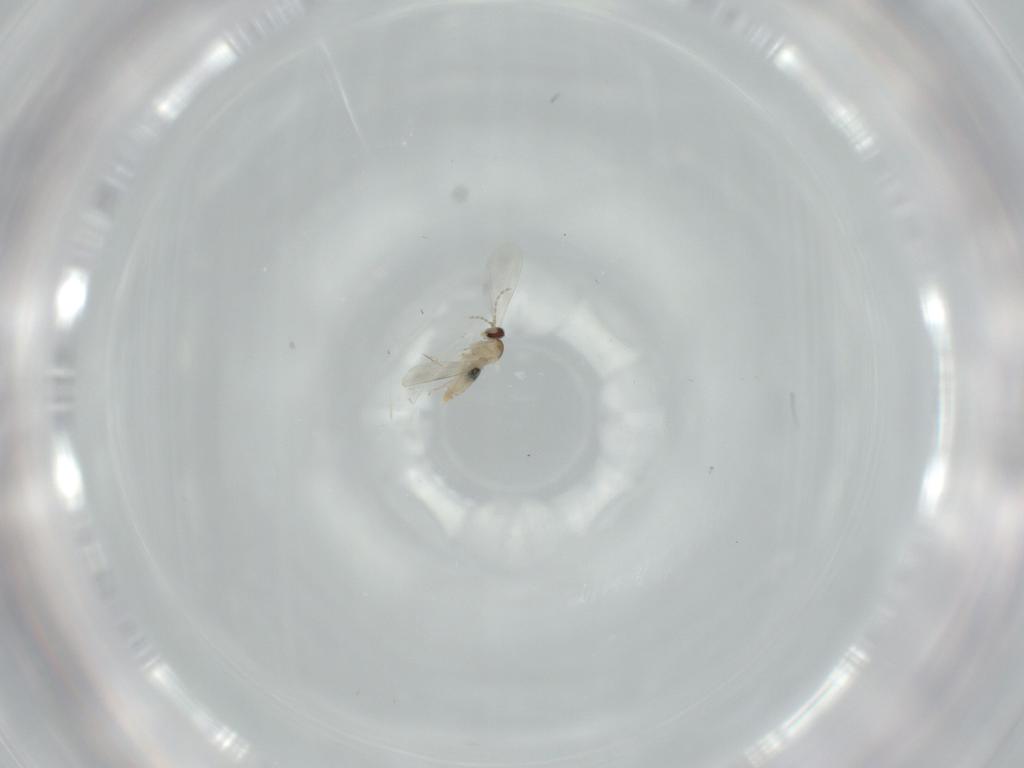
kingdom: Animalia
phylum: Arthropoda
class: Insecta
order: Diptera
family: Cecidomyiidae
